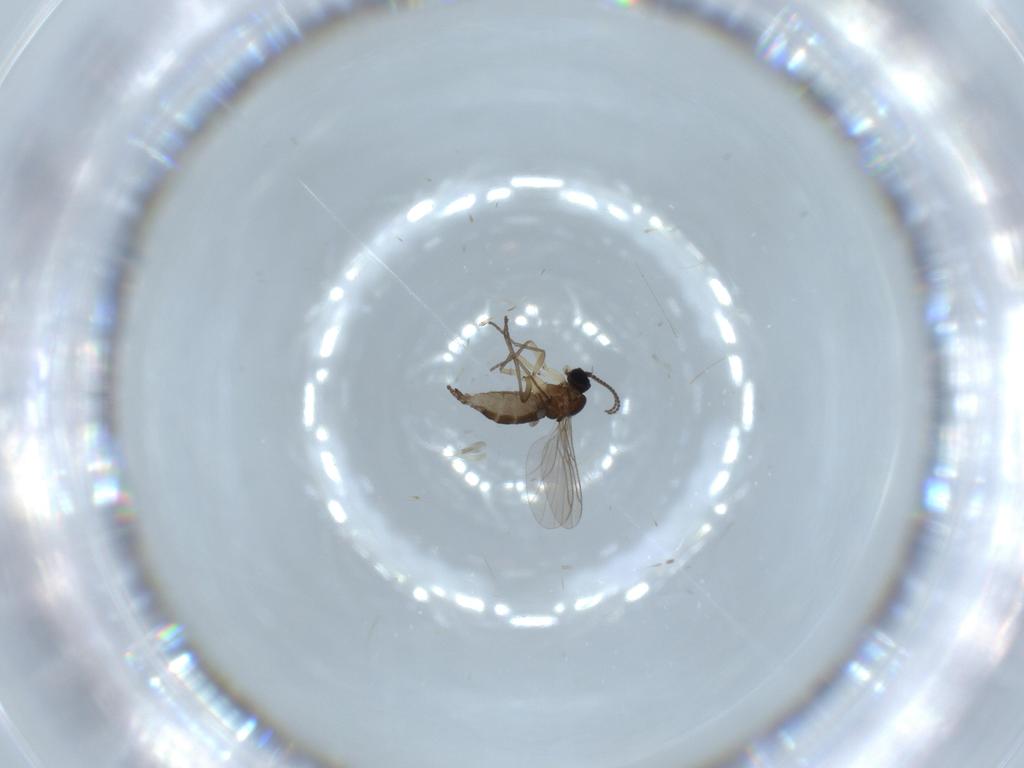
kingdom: Animalia
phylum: Arthropoda
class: Insecta
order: Diptera
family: Sciaridae
